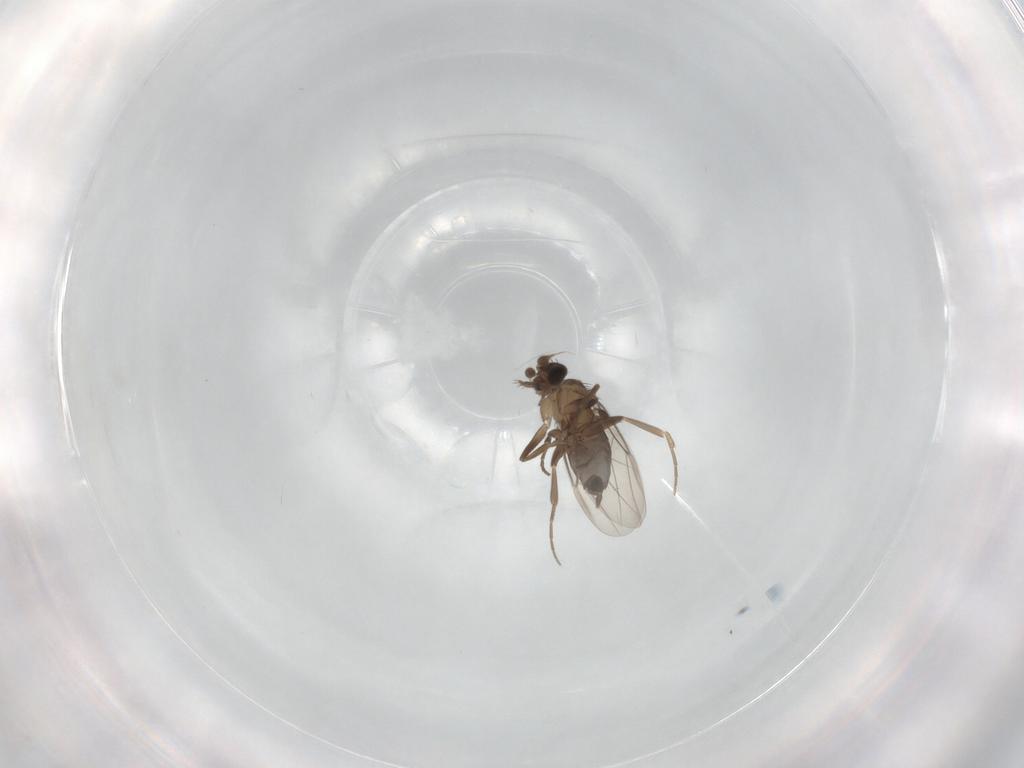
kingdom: Animalia
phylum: Arthropoda
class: Insecta
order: Diptera
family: Phoridae
